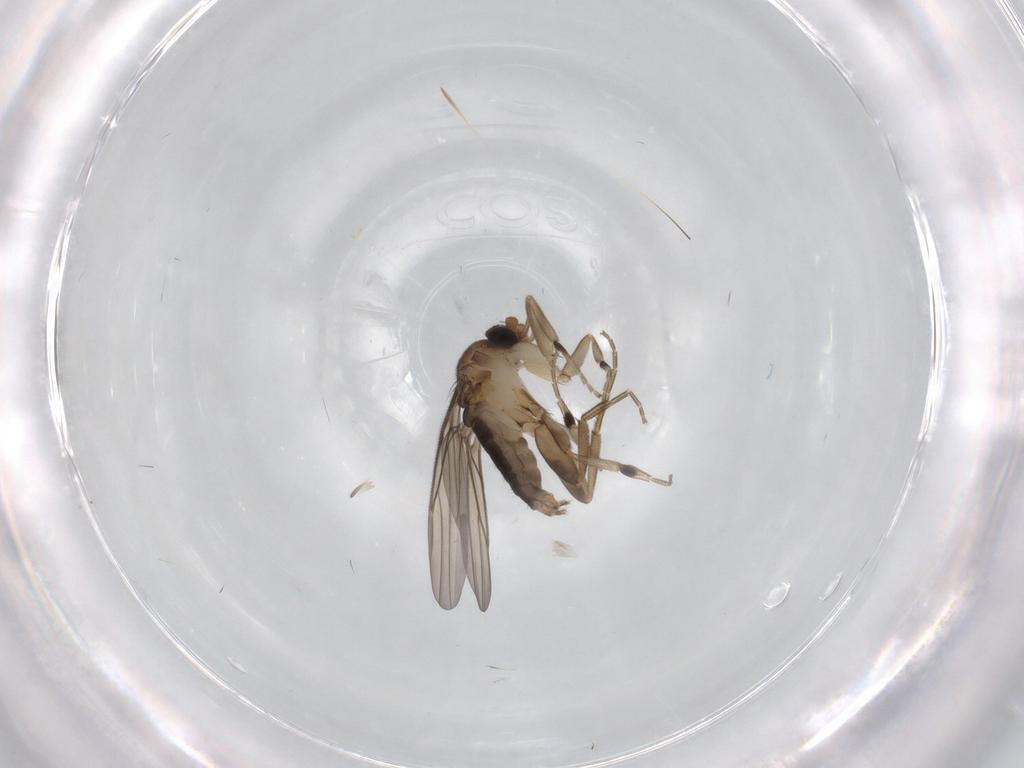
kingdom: Animalia
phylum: Arthropoda
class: Insecta
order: Diptera
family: Phoridae
